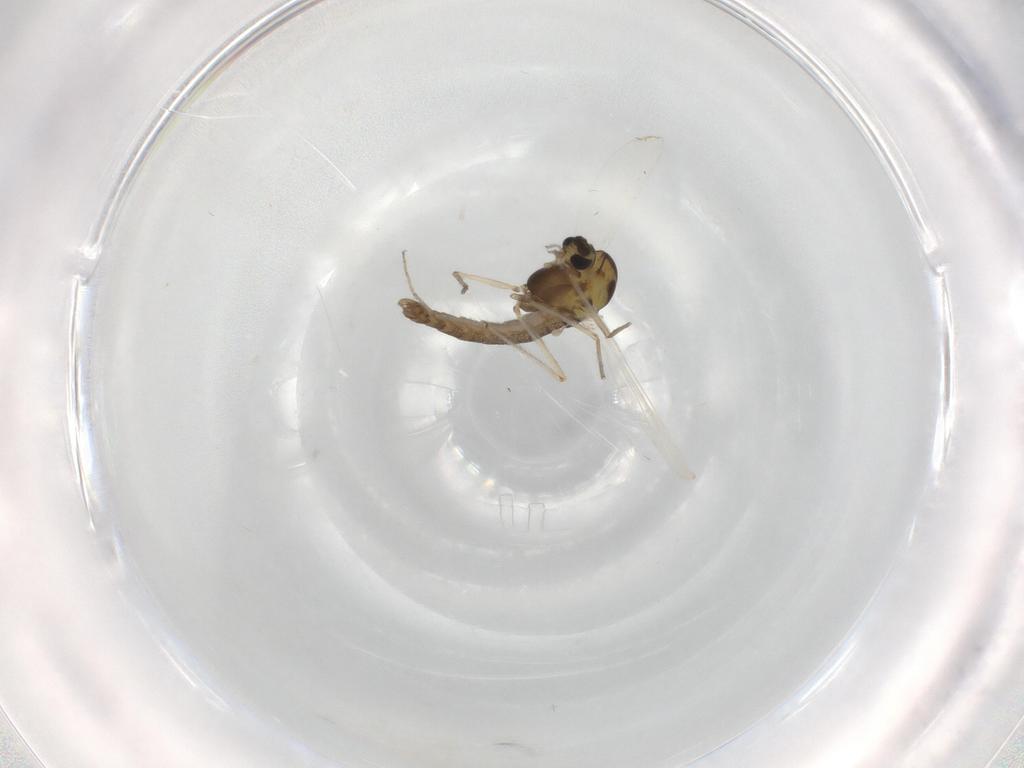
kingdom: Animalia
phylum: Arthropoda
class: Insecta
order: Diptera
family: Chironomidae
